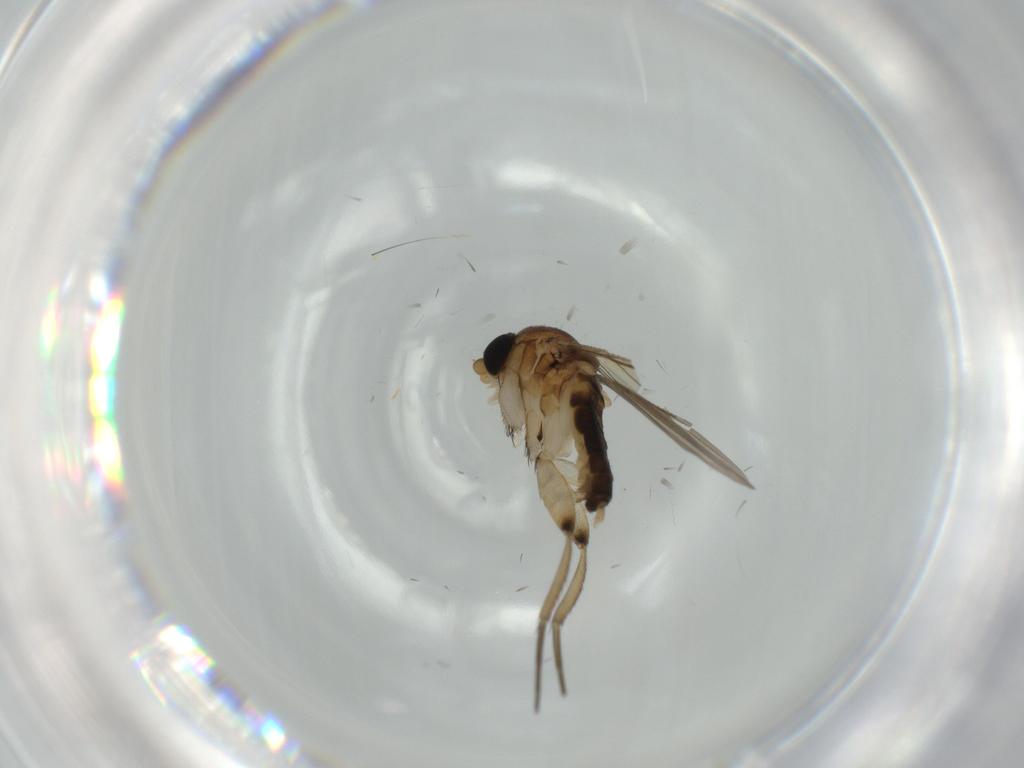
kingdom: Animalia
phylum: Arthropoda
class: Insecta
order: Diptera
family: Phoridae
